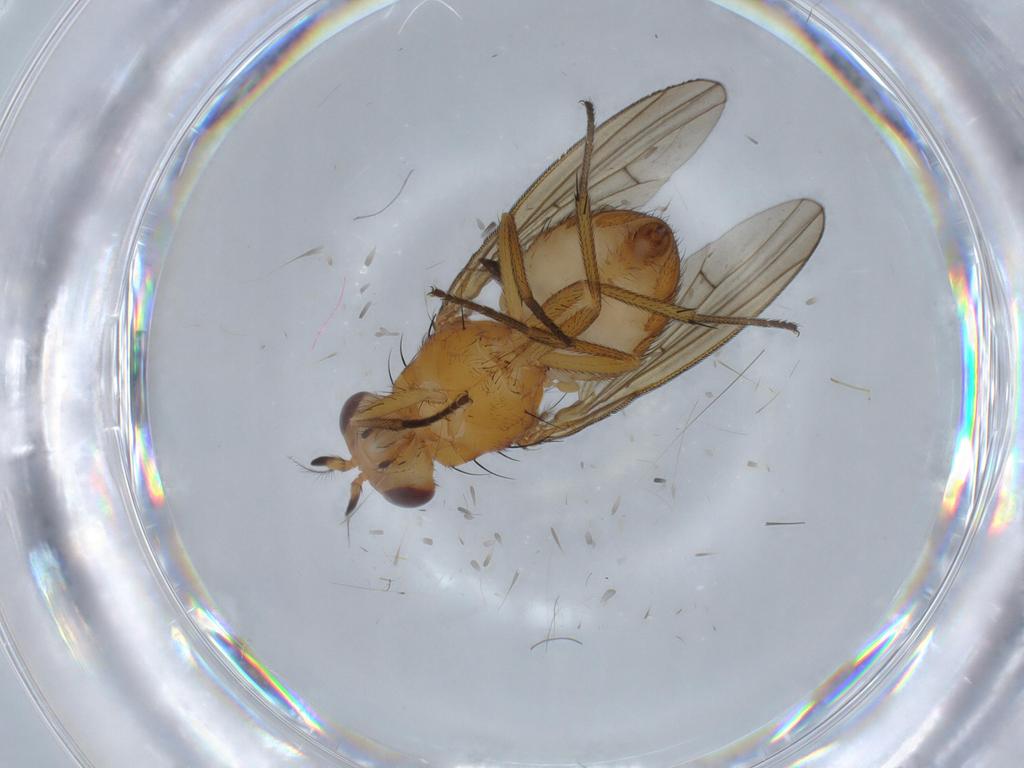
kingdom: Animalia
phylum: Arthropoda
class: Insecta
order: Diptera
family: Lauxaniidae
